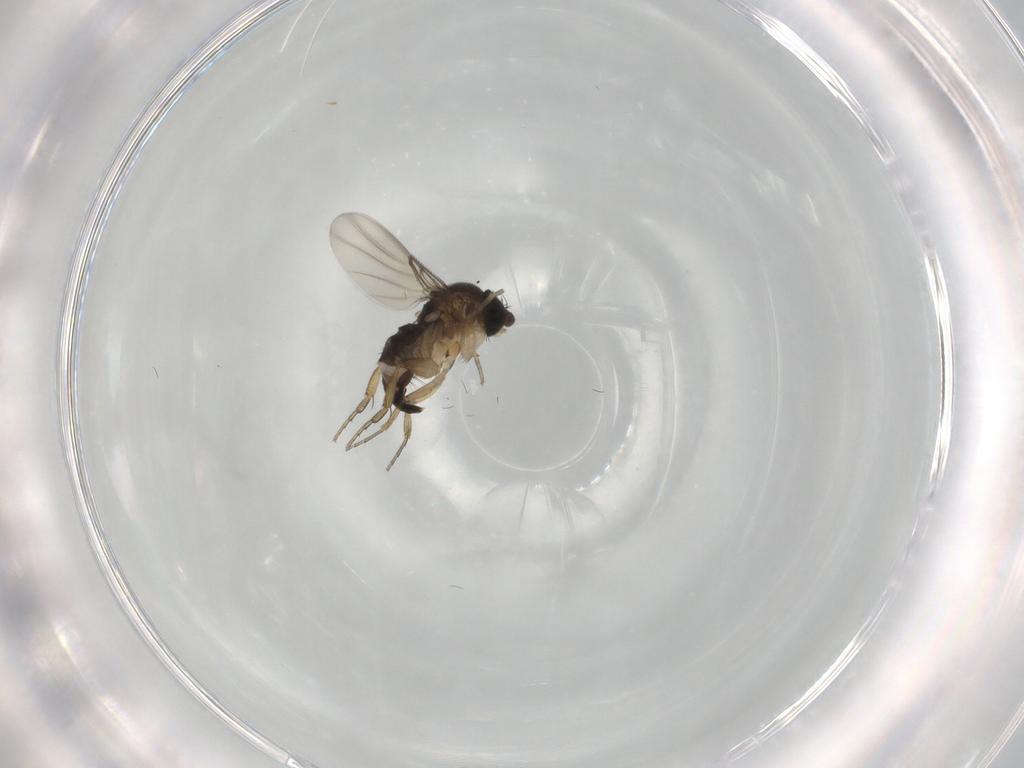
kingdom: Animalia
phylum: Arthropoda
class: Insecta
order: Diptera
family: Phoridae
